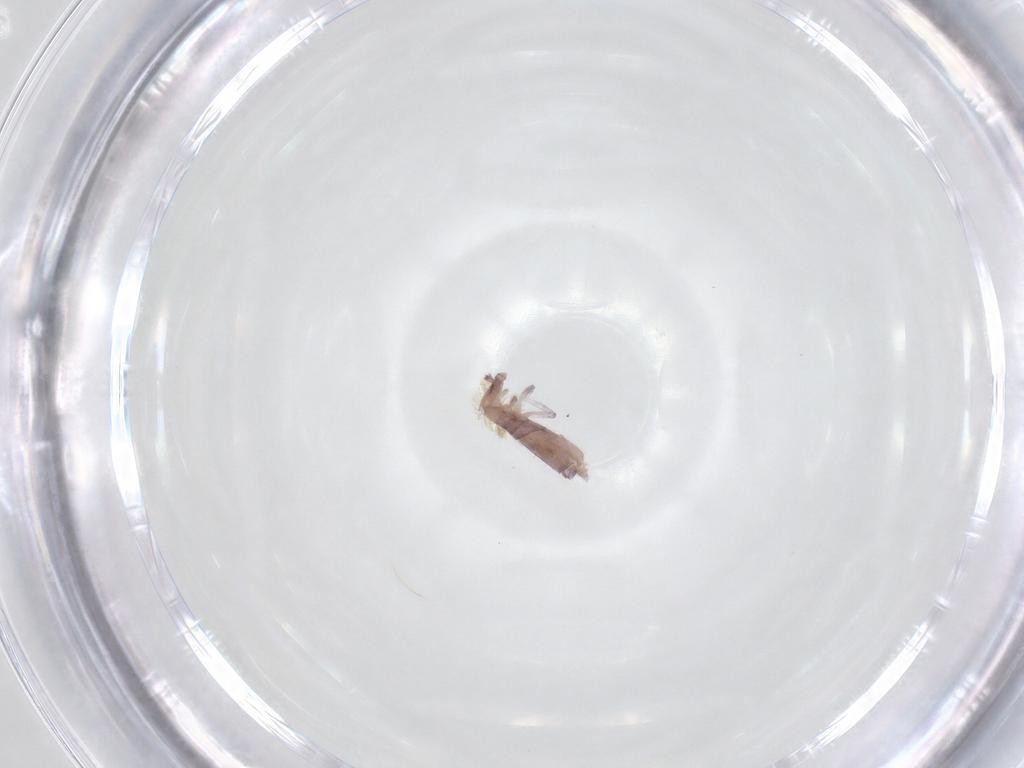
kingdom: Animalia
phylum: Arthropoda
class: Collembola
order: Entomobryomorpha
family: Entomobryidae
